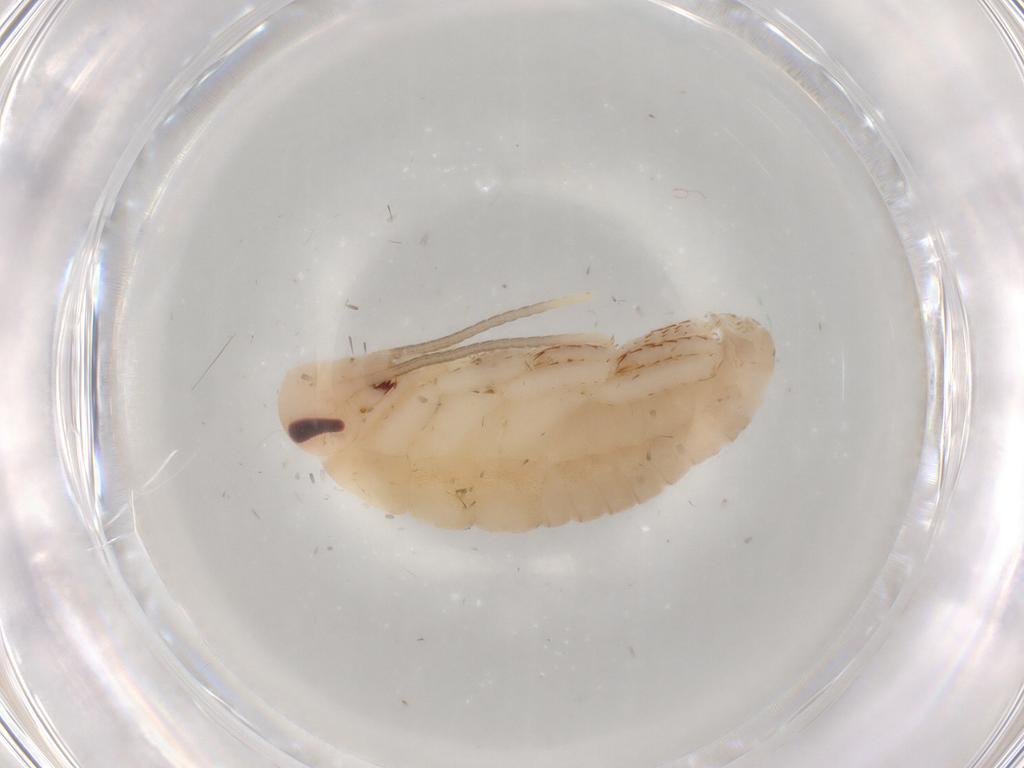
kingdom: Animalia
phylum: Arthropoda
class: Insecta
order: Blattodea
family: Blaberidae
